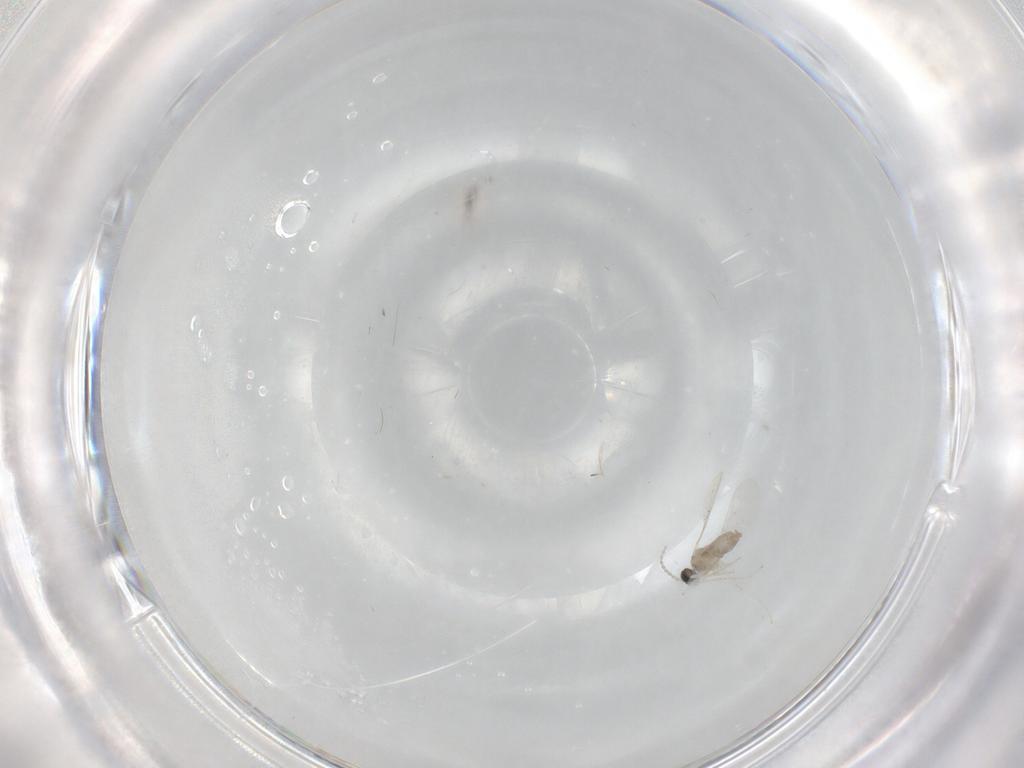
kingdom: Animalia
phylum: Arthropoda
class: Insecta
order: Diptera
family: Cecidomyiidae
